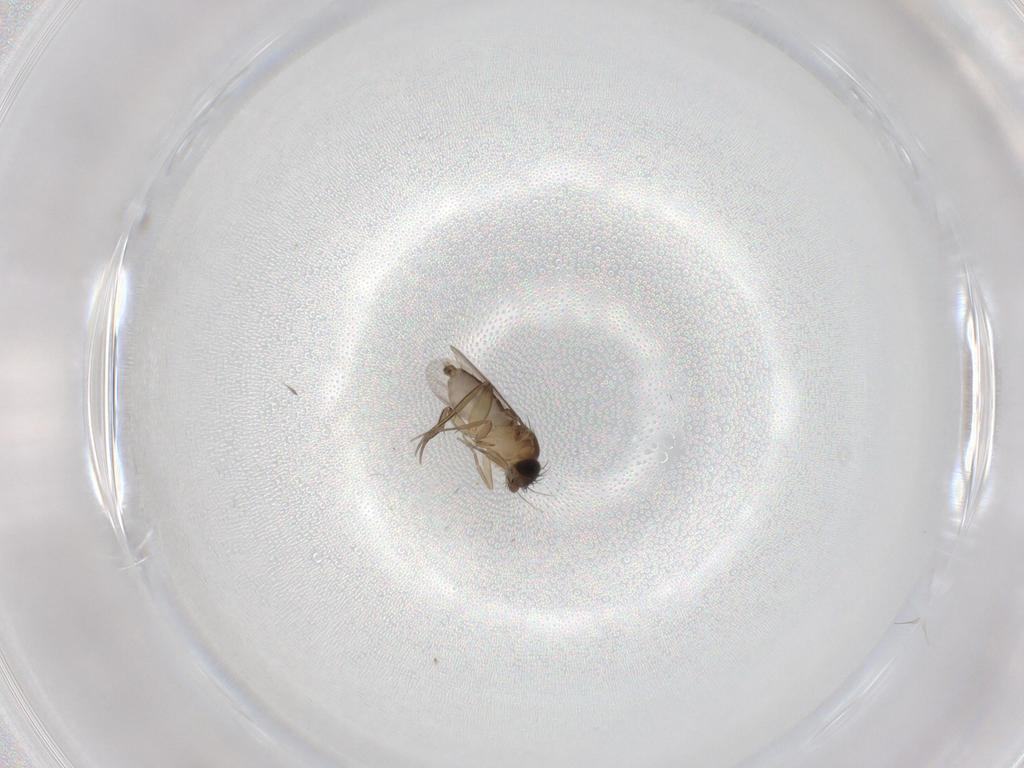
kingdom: Animalia
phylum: Arthropoda
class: Insecta
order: Diptera
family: Phoridae
